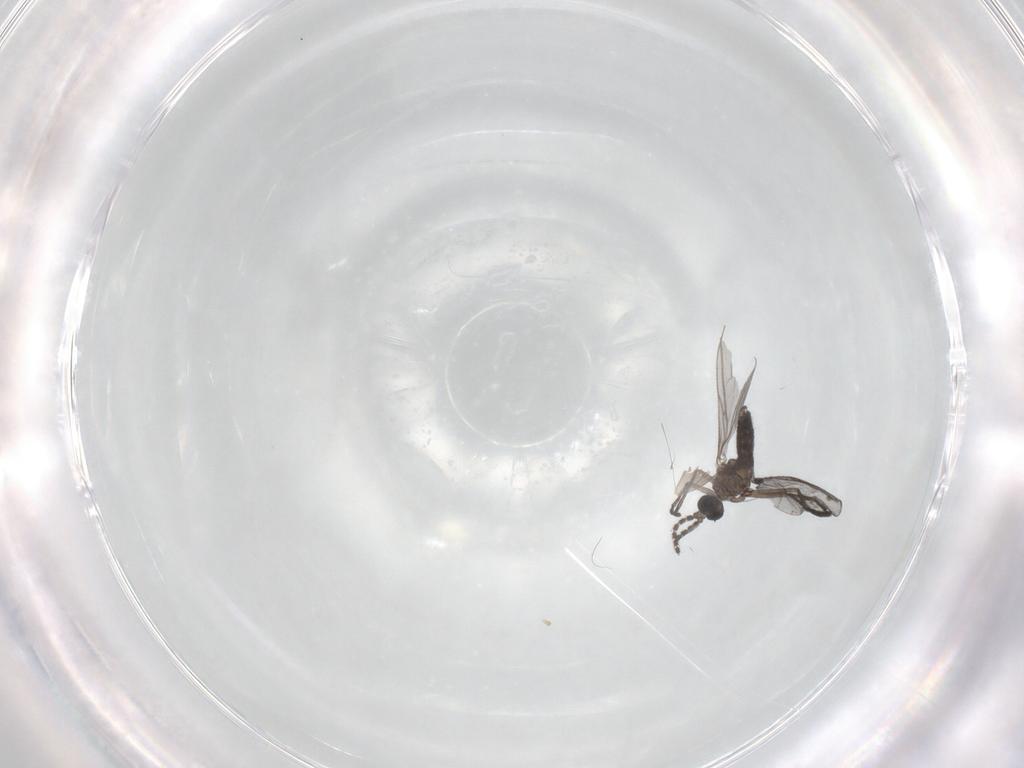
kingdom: Animalia
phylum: Arthropoda
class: Insecta
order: Diptera
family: Sciaridae
